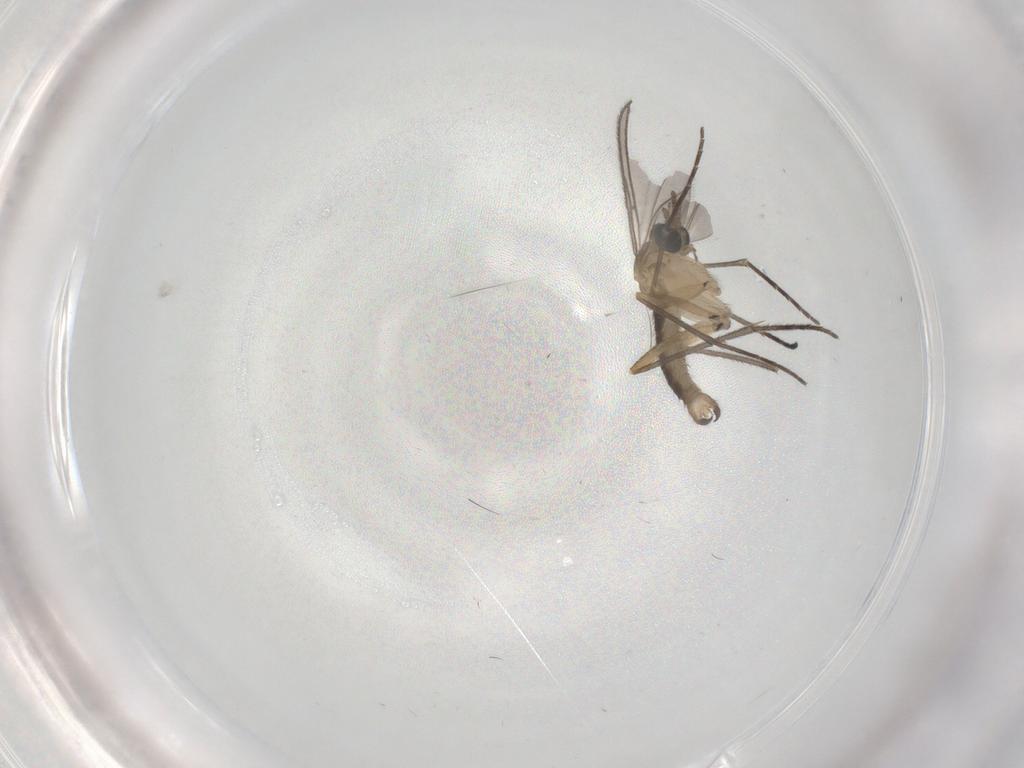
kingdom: Animalia
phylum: Arthropoda
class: Insecta
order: Diptera
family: Sciaridae
